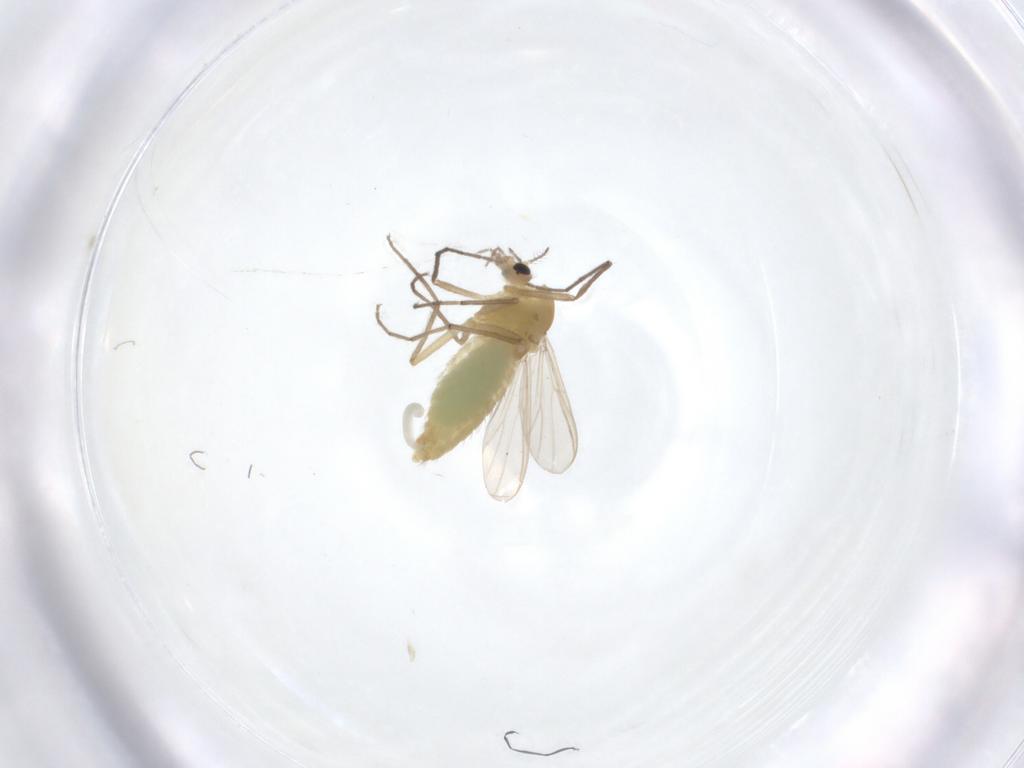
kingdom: Animalia
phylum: Arthropoda
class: Insecta
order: Diptera
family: Chironomidae
